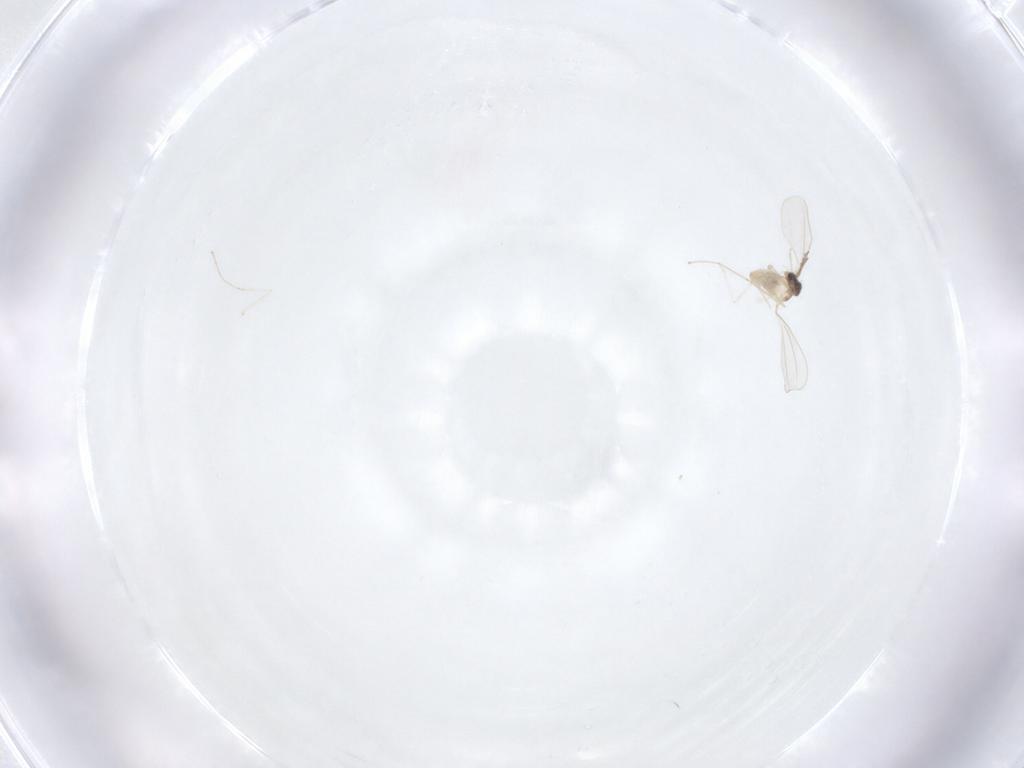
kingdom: Animalia
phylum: Arthropoda
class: Insecta
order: Diptera
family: Cecidomyiidae
